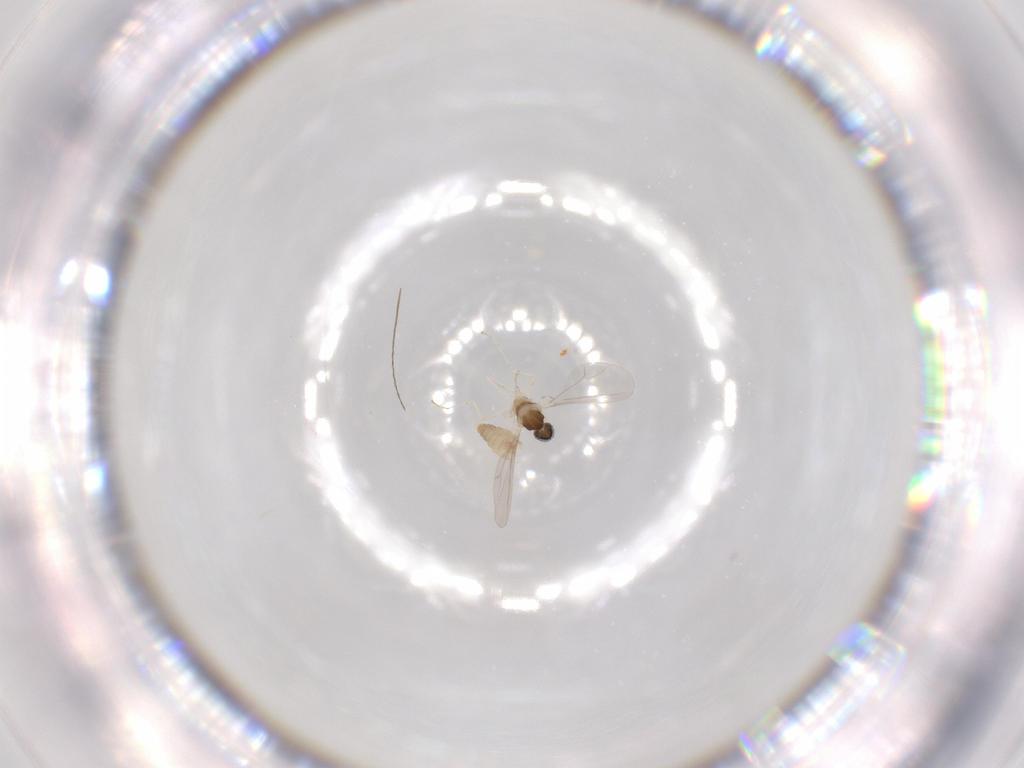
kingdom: Animalia
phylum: Arthropoda
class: Insecta
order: Diptera
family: Cecidomyiidae
